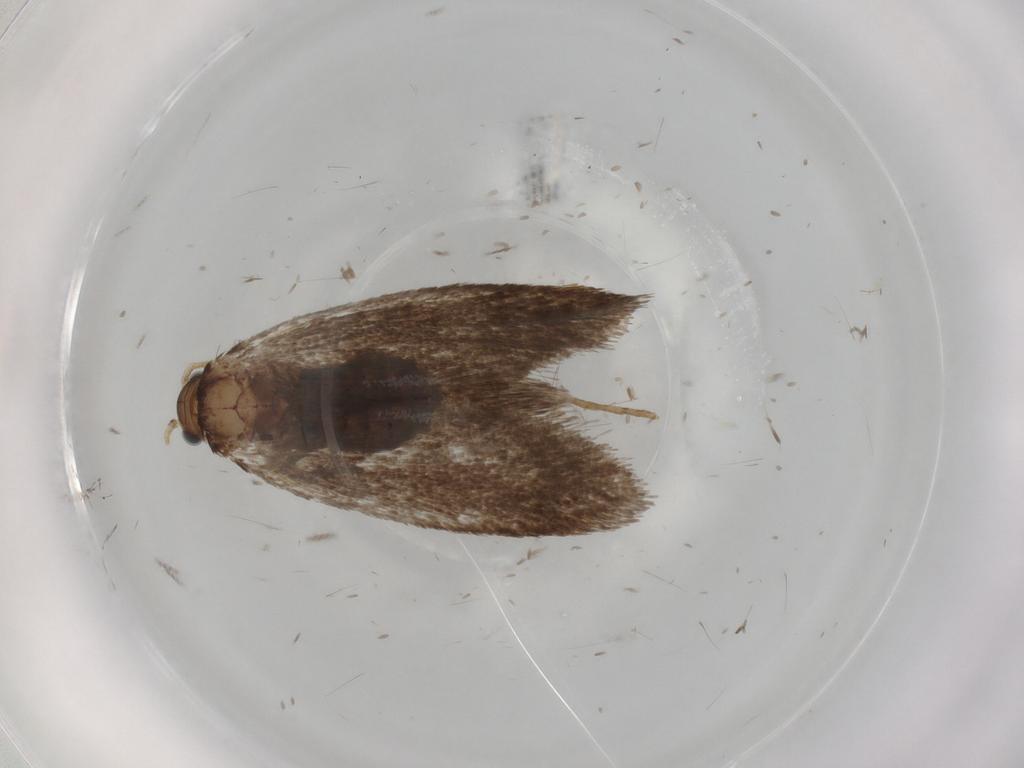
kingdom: Animalia
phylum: Arthropoda
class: Insecta
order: Lepidoptera
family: Dryadaulidae
